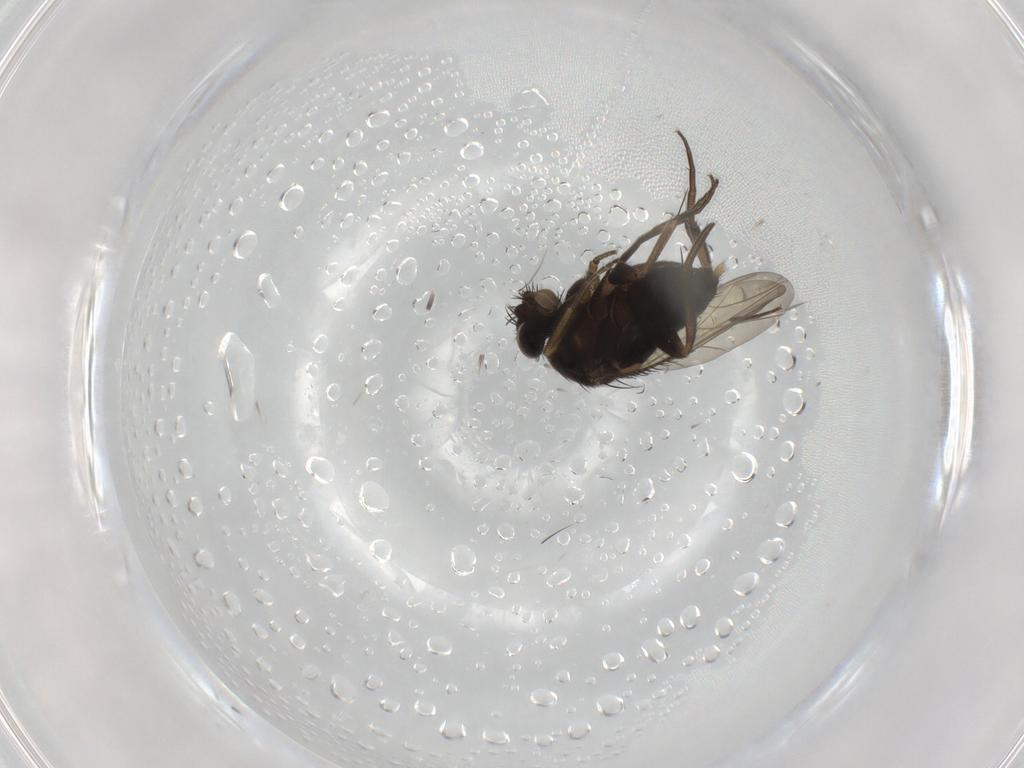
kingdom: Animalia
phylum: Arthropoda
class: Insecta
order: Diptera
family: Phoridae
